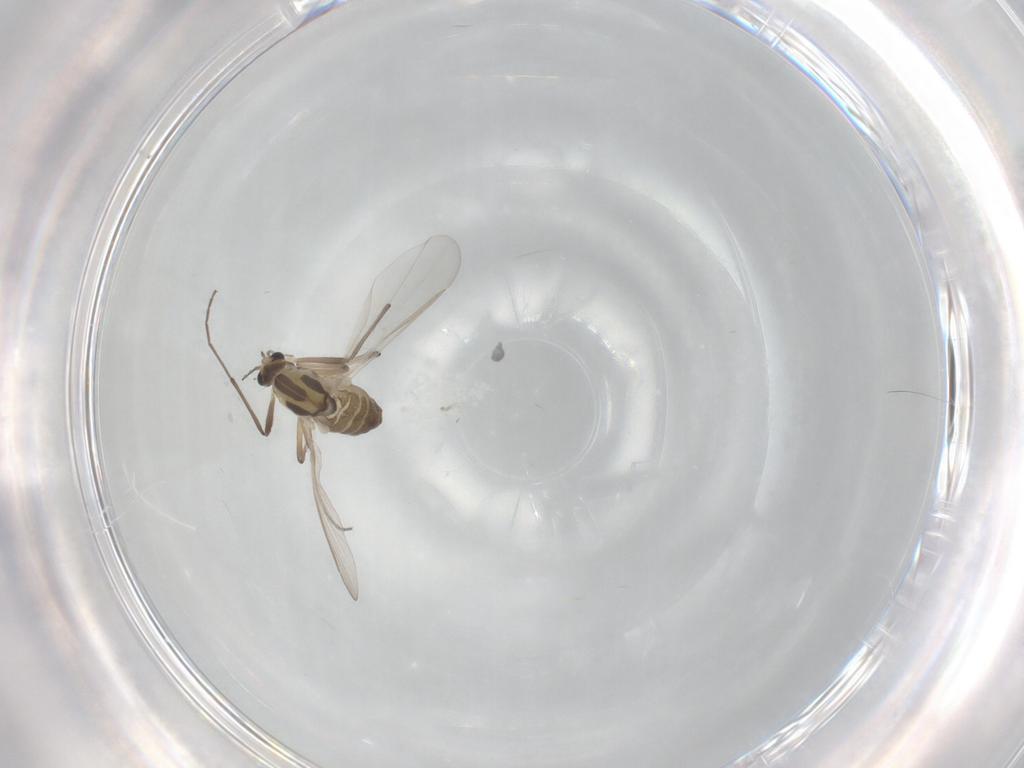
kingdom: Animalia
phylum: Arthropoda
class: Insecta
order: Diptera
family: Chironomidae
